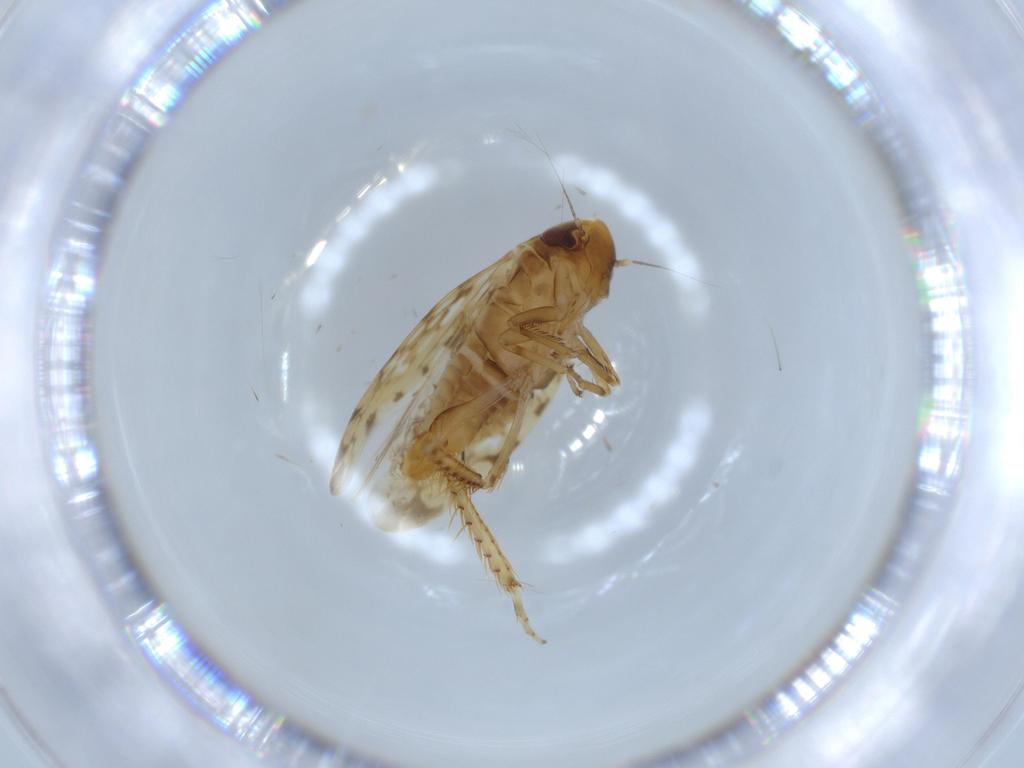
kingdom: Animalia
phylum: Arthropoda
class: Insecta
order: Hemiptera
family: Cicadellidae
